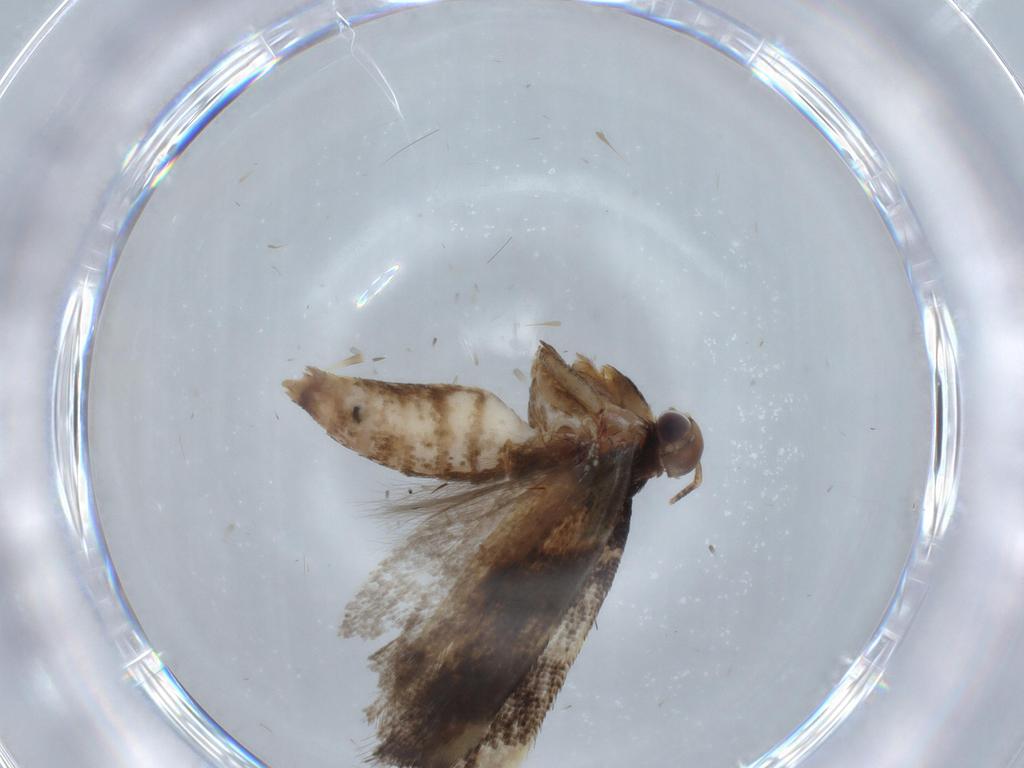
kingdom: Animalia
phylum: Arthropoda
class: Insecta
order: Lepidoptera
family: Gelechiidae
